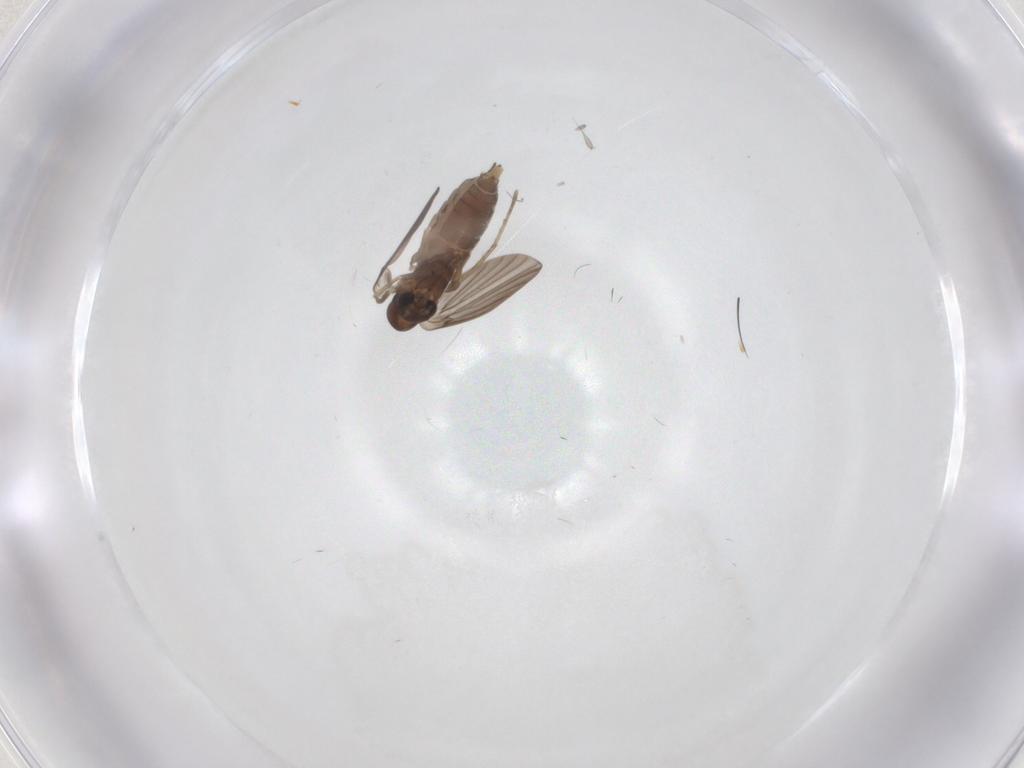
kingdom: Animalia
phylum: Arthropoda
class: Insecta
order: Diptera
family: Clusiidae
